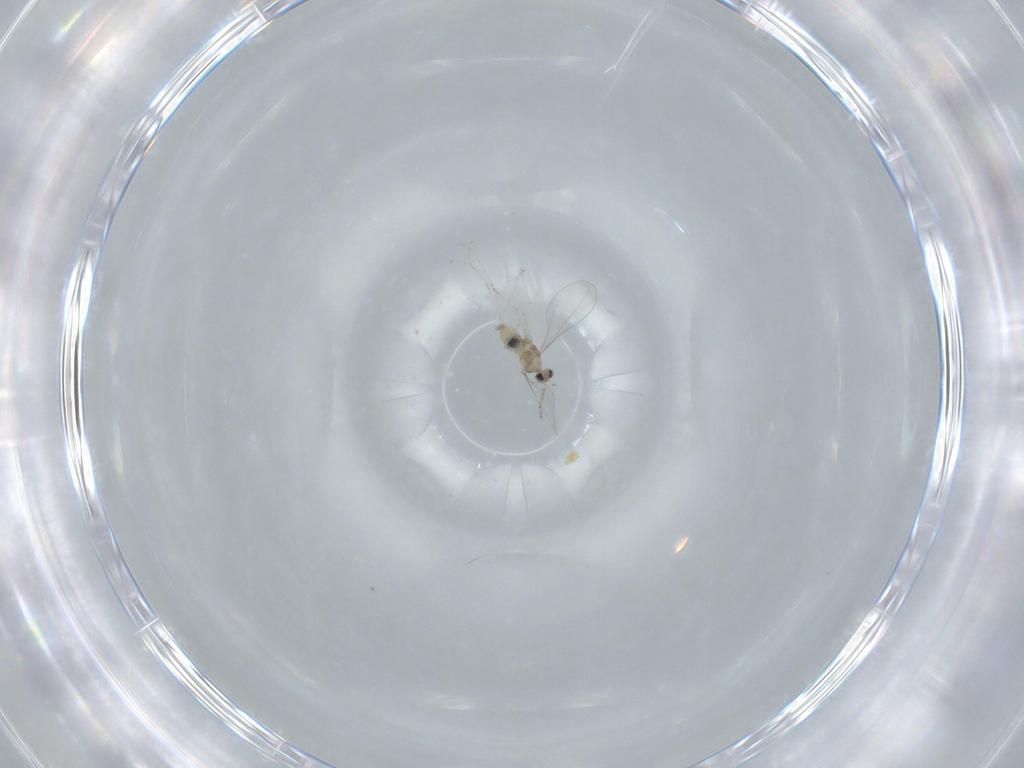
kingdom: Animalia
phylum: Arthropoda
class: Insecta
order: Diptera
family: Cecidomyiidae
